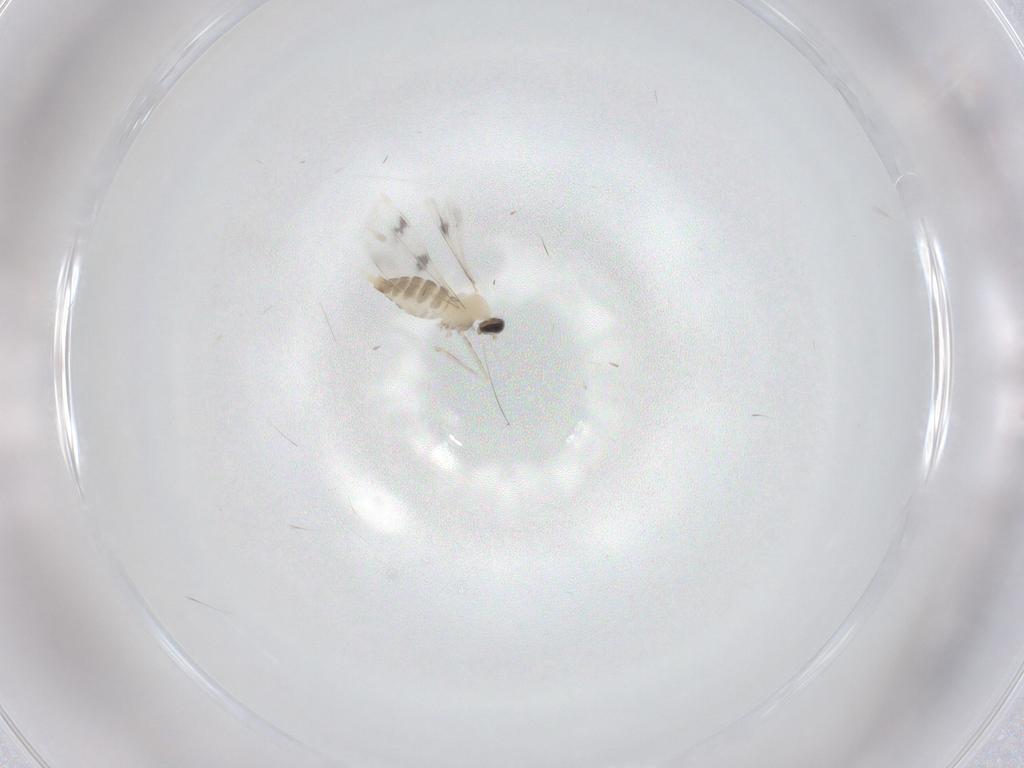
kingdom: Animalia
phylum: Arthropoda
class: Insecta
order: Diptera
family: Cecidomyiidae
